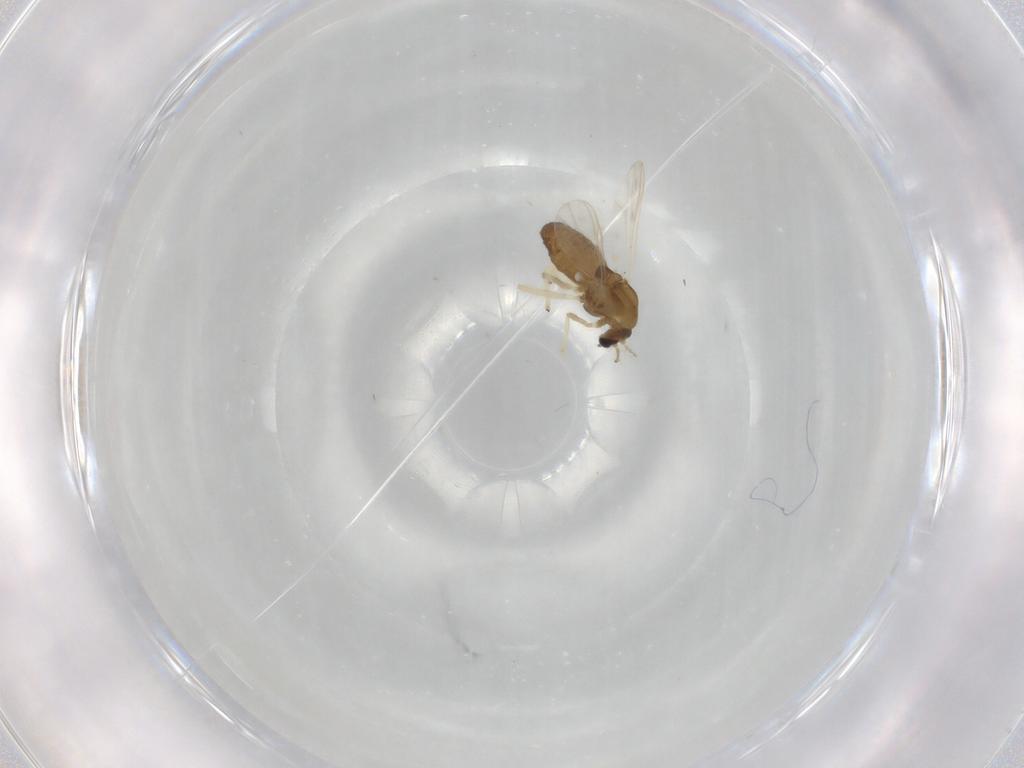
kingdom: Animalia
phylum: Arthropoda
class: Insecta
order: Diptera
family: Chironomidae
